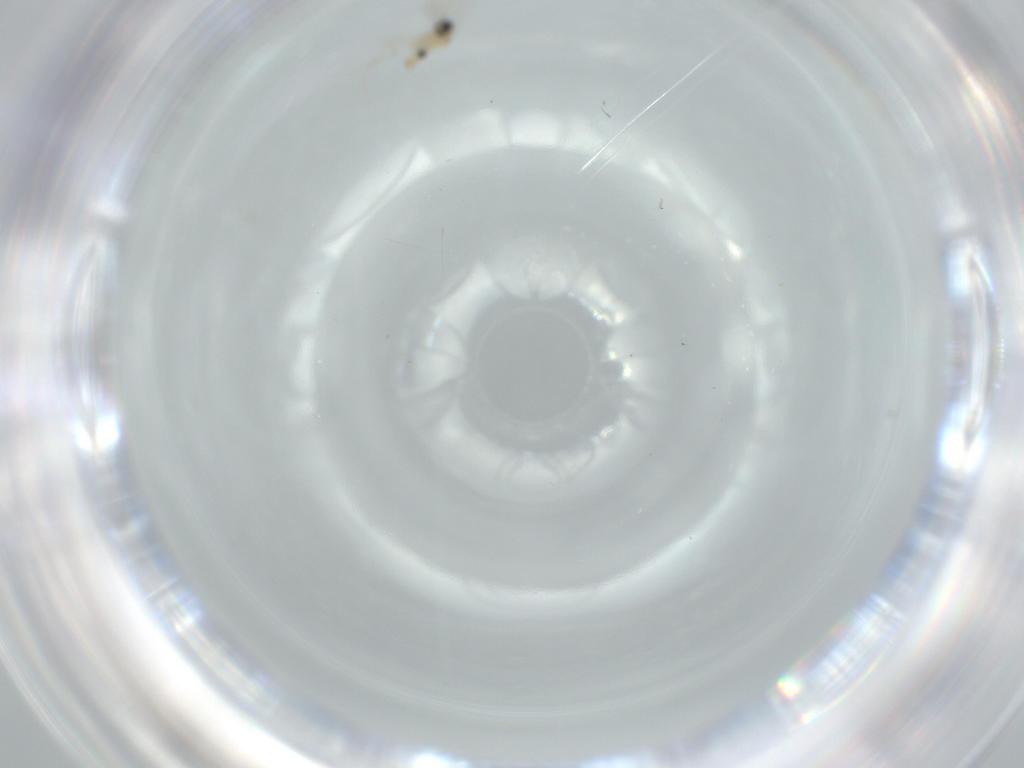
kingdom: Animalia
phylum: Arthropoda
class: Insecta
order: Diptera
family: Cecidomyiidae
